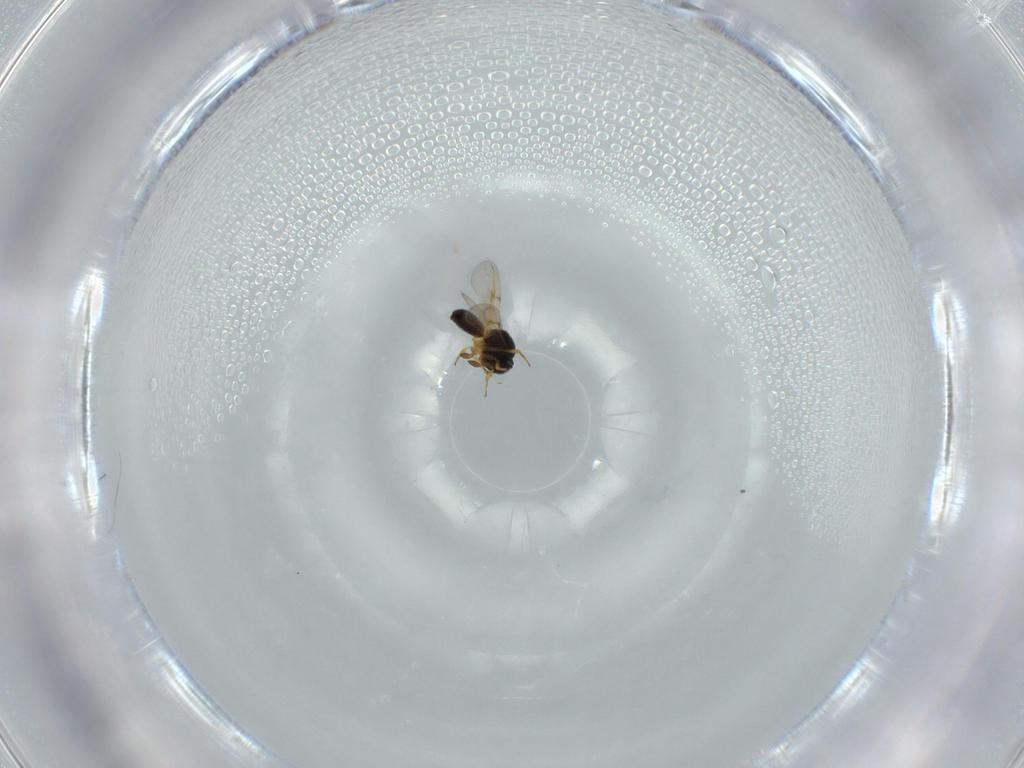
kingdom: Animalia
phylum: Arthropoda
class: Insecta
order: Hymenoptera
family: Scelionidae
